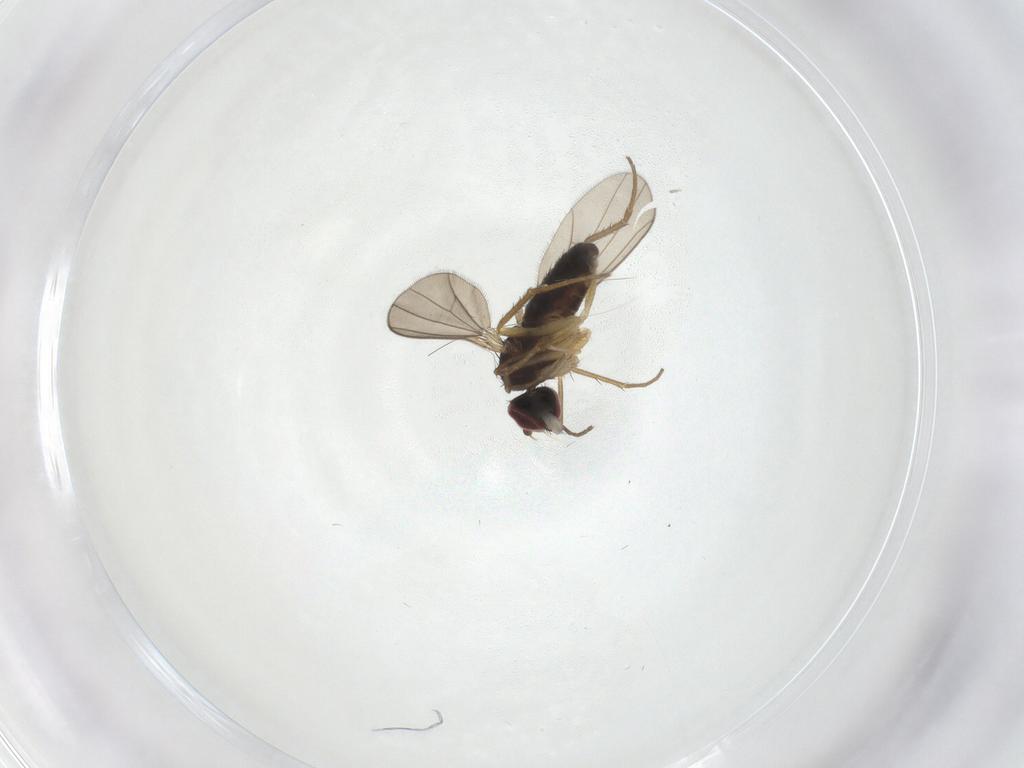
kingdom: Animalia
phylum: Arthropoda
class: Insecta
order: Diptera
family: Dolichopodidae
